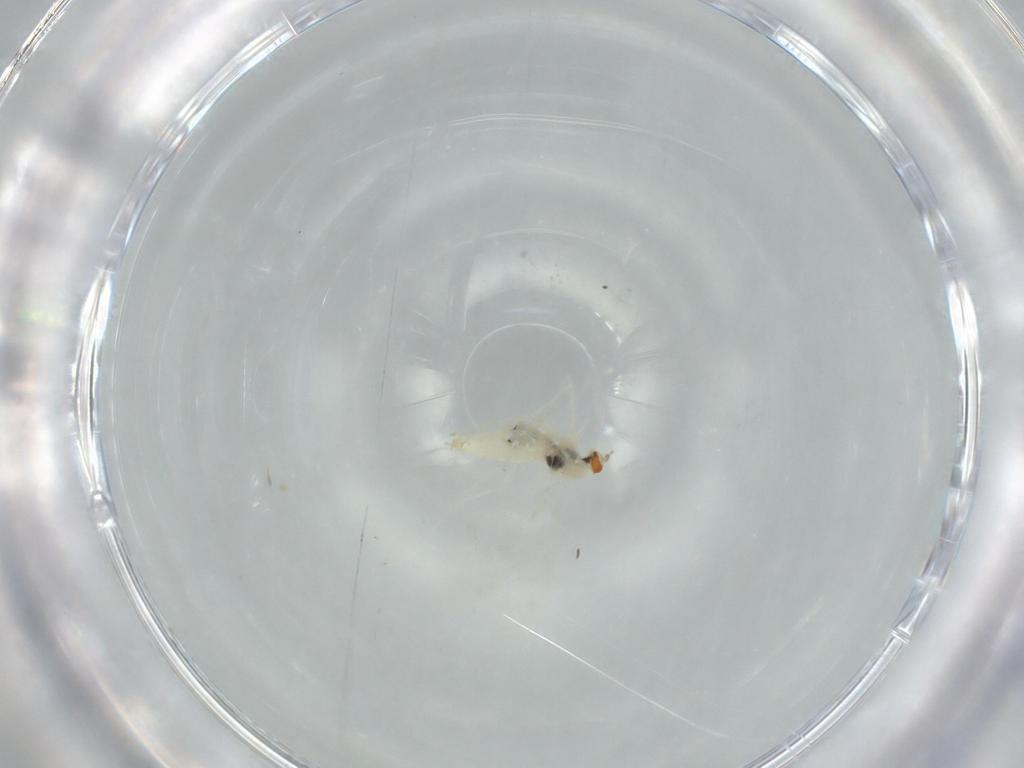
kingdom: Animalia
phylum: Arthropoda
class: Insecta
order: Diptera
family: Cecidomyiidae
